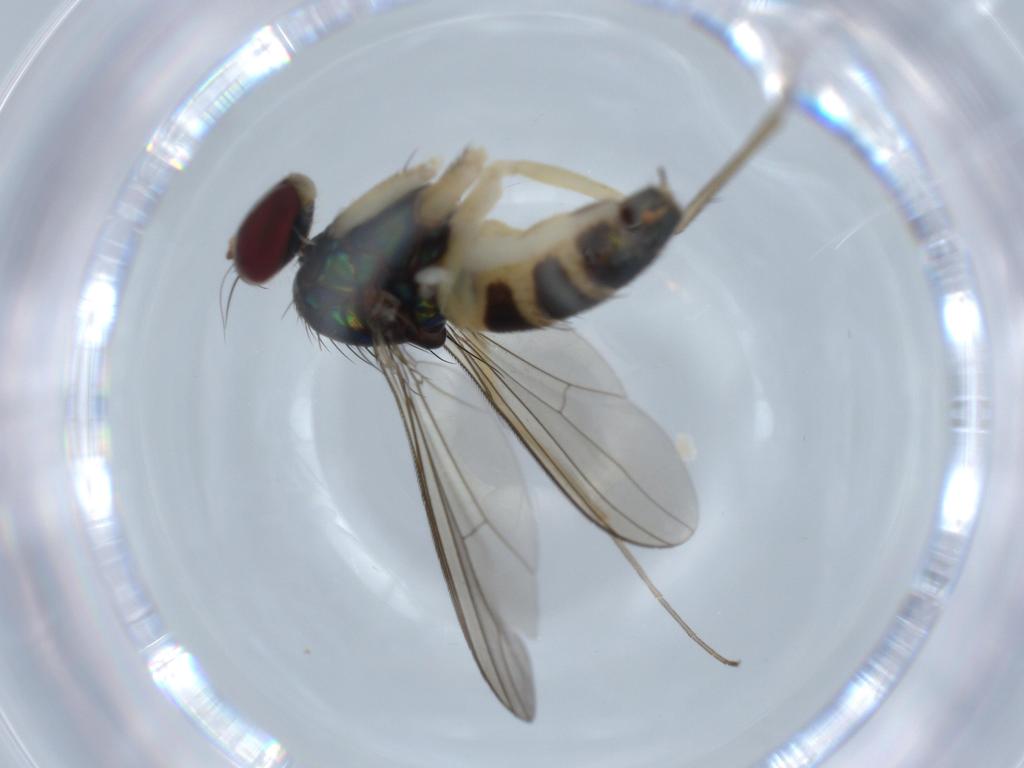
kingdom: Animalia
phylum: Arthropoda
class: Insecta
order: Diptera
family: Dolichopodidae
